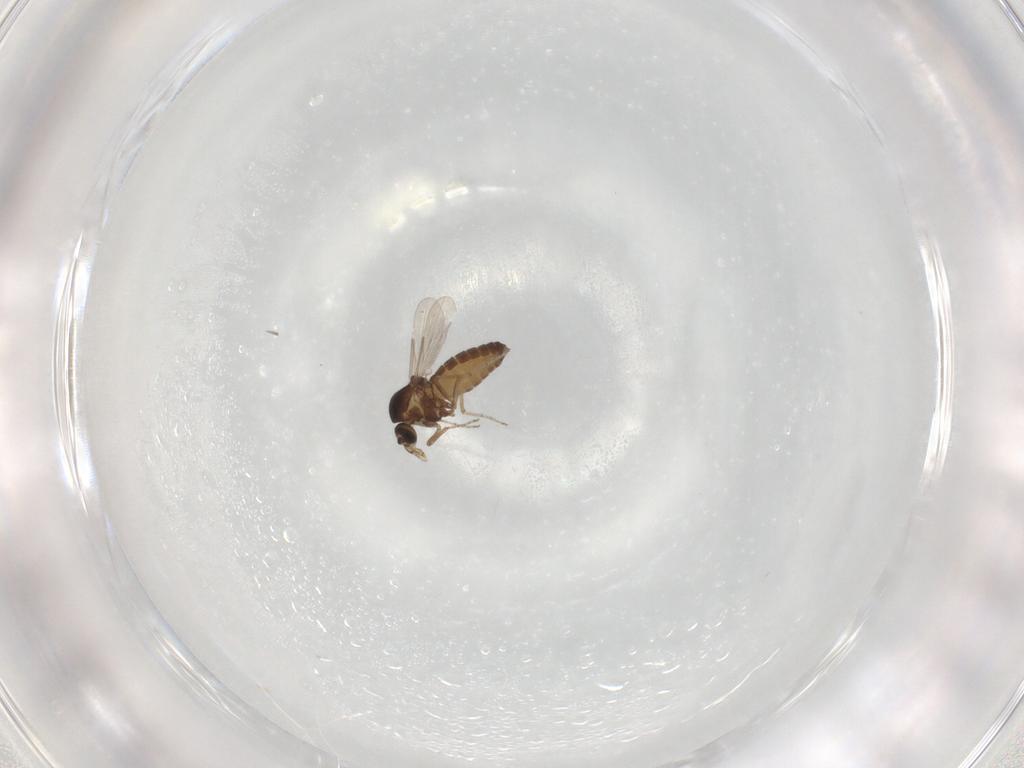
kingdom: Animalia
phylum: Arthropoda
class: Insecta
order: Diptera
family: Ceratopogonidae
